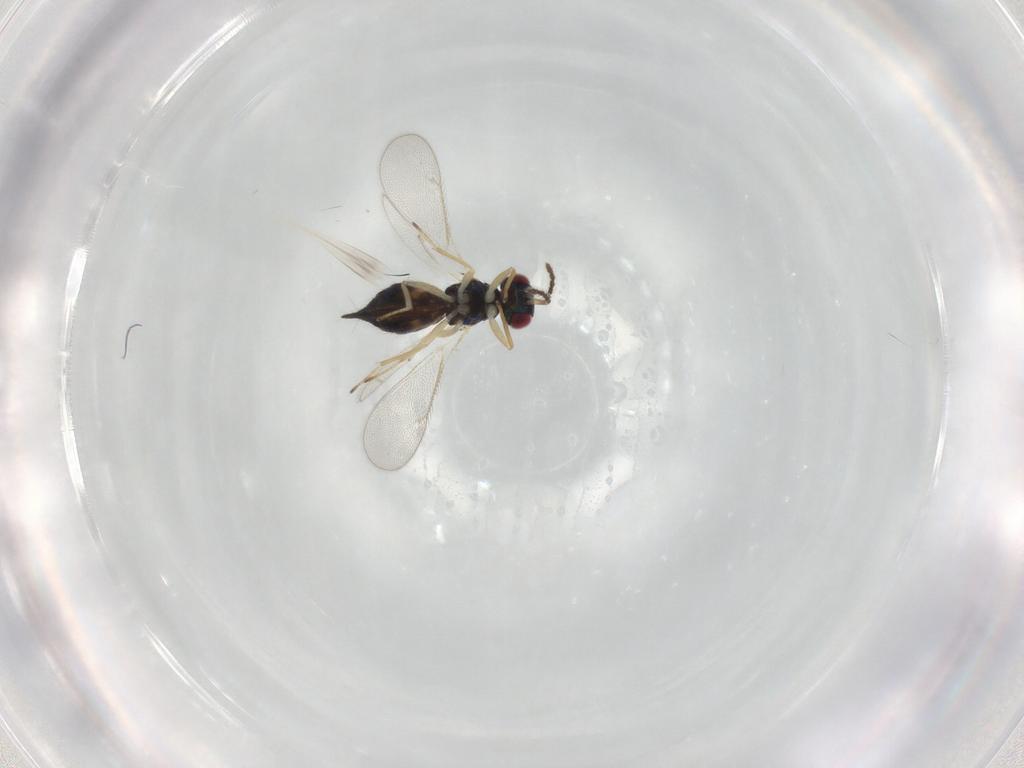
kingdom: Animalia
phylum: Arthropoda
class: Insecta
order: Hymenoptera
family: Eulophidae
